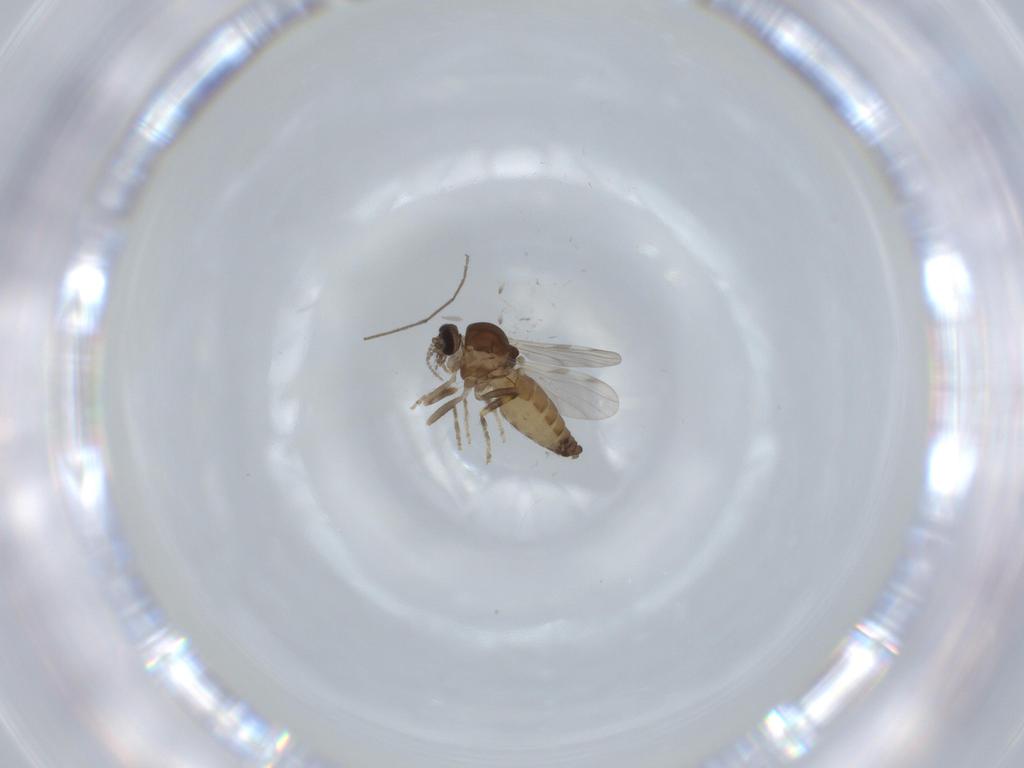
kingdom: Animalia
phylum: Arthropoda
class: Insecta
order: Diptera
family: Ceratopogonidae
